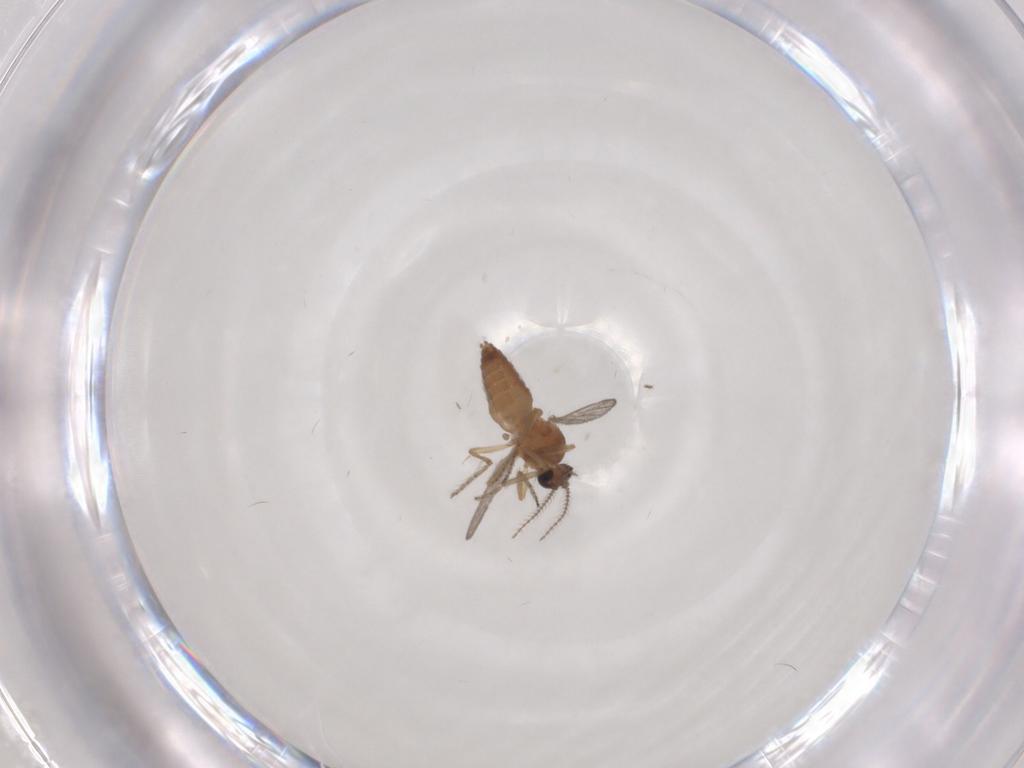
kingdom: Animalia
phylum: Arthropoda
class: Insecta
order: Diptera
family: Ceratopogonidae
